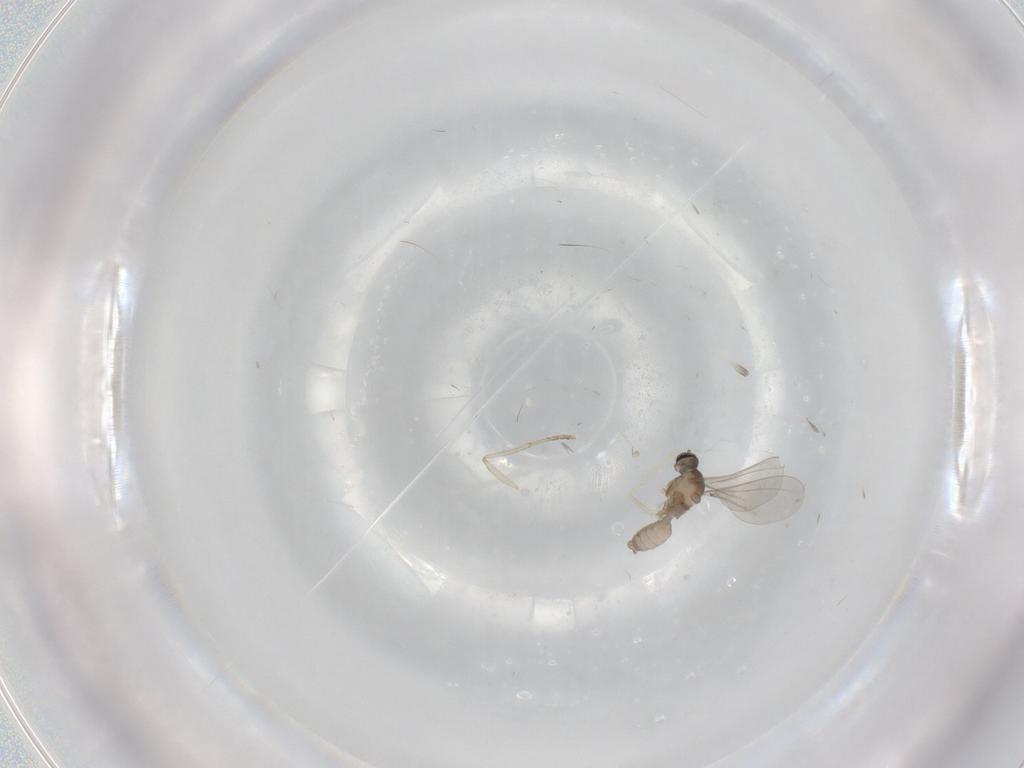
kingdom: Animalia
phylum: Arthropoda
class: Insecta
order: Diptera
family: Psychodidae
